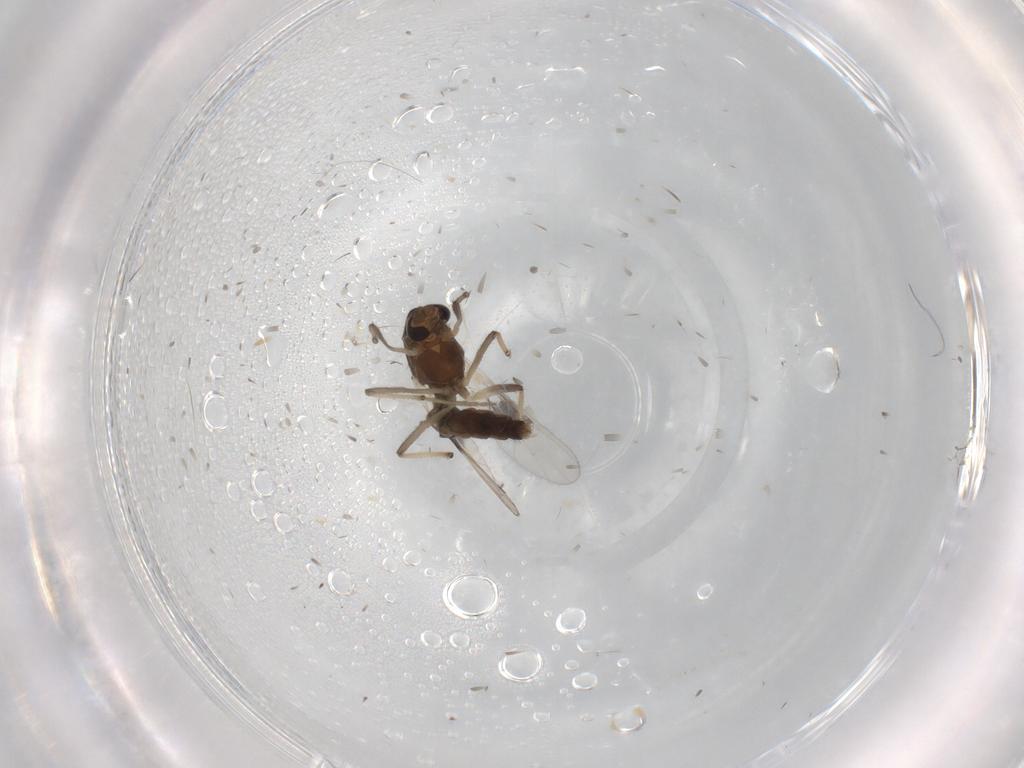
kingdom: Animalia
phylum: Arthropoda
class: Insecta
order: Diptera
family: Chironomidae
